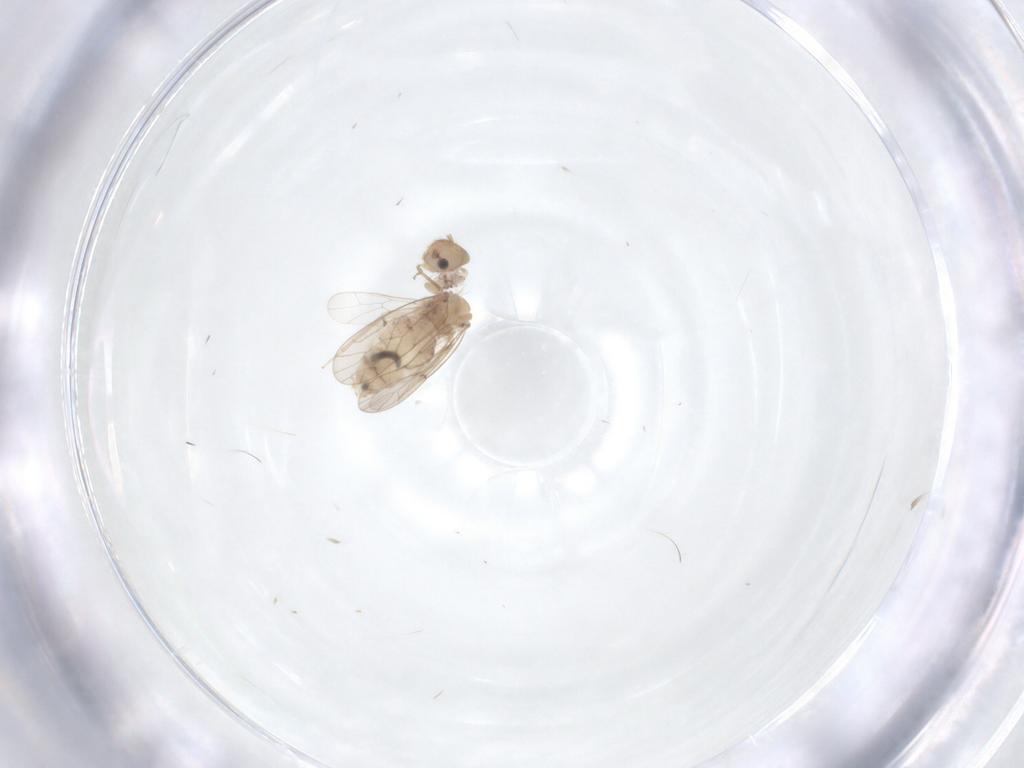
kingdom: Animalia
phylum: Arthropoda
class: Insecta
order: Psocodea
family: Ectopsocidae
